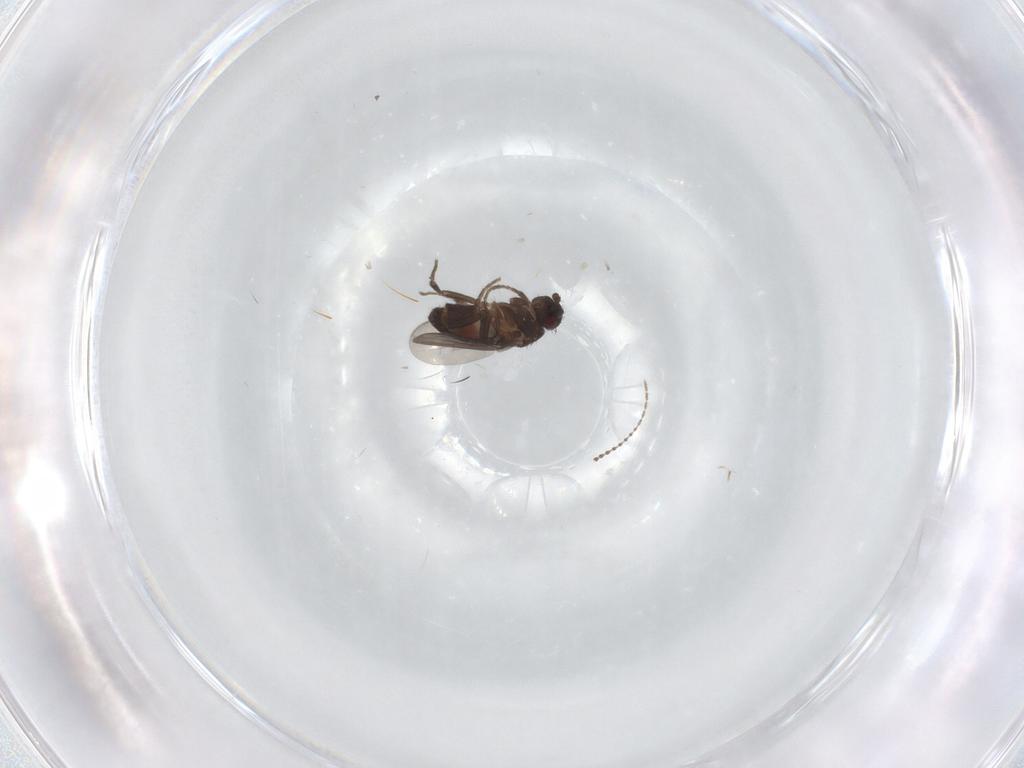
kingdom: Animalia
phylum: Arthropoda
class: Insecta
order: Diptera
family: Sphaeroceridae
